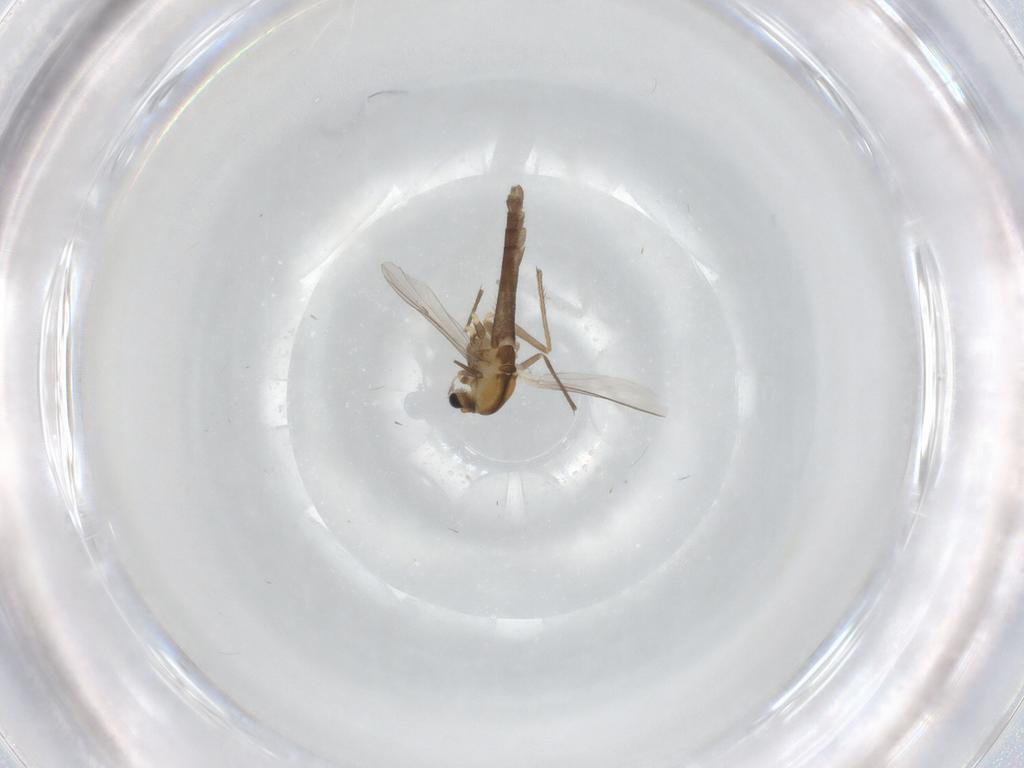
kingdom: Animalia
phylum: Arthropoda
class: Insecta
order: Diptera
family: Chironomidae
